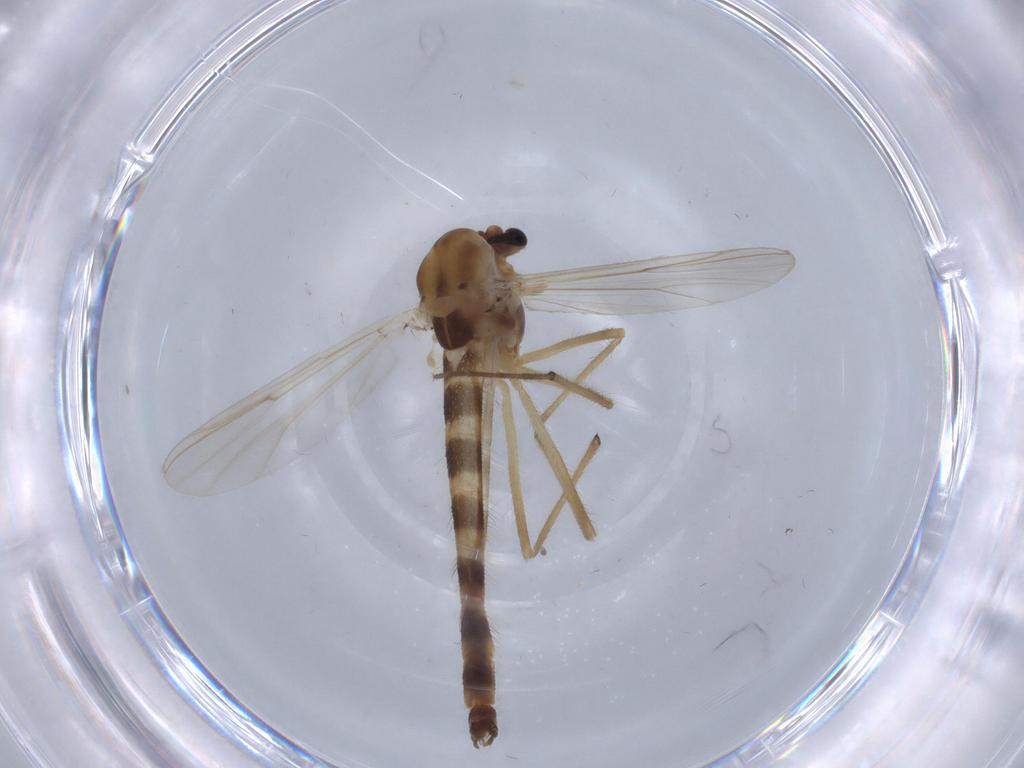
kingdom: Animalia
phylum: Arthropoda
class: Insecta
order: Diptera
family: Chironomidae
